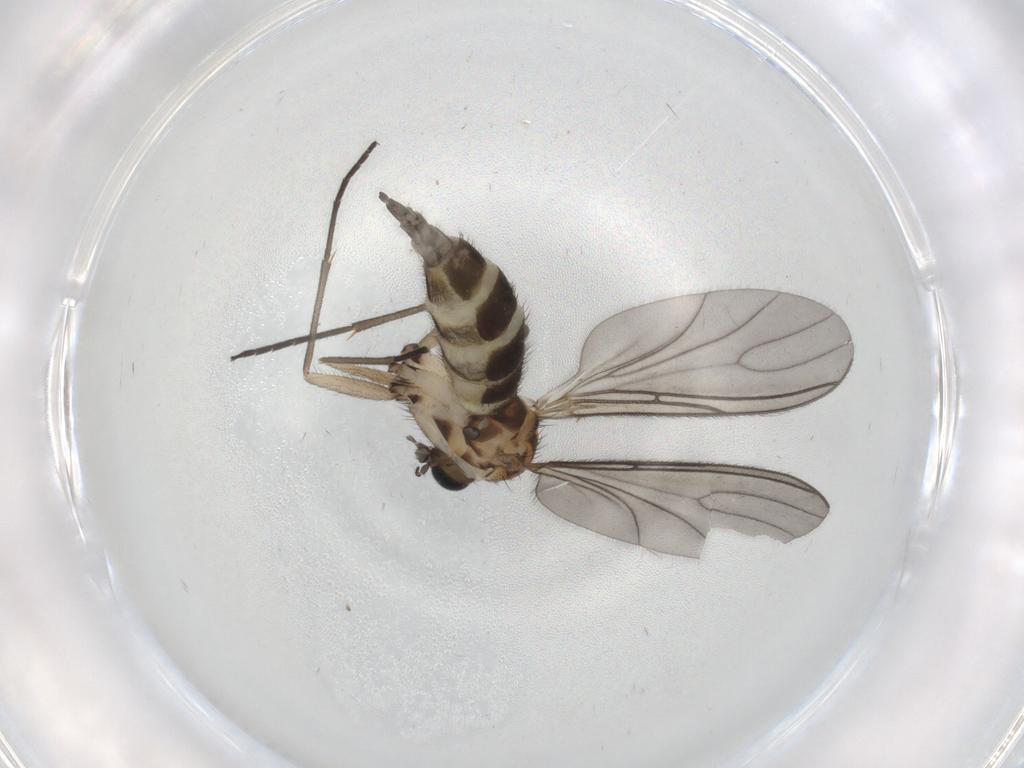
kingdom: Animalia
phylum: Arthropoda
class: Insecta
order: Diptera
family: Sciaridae
